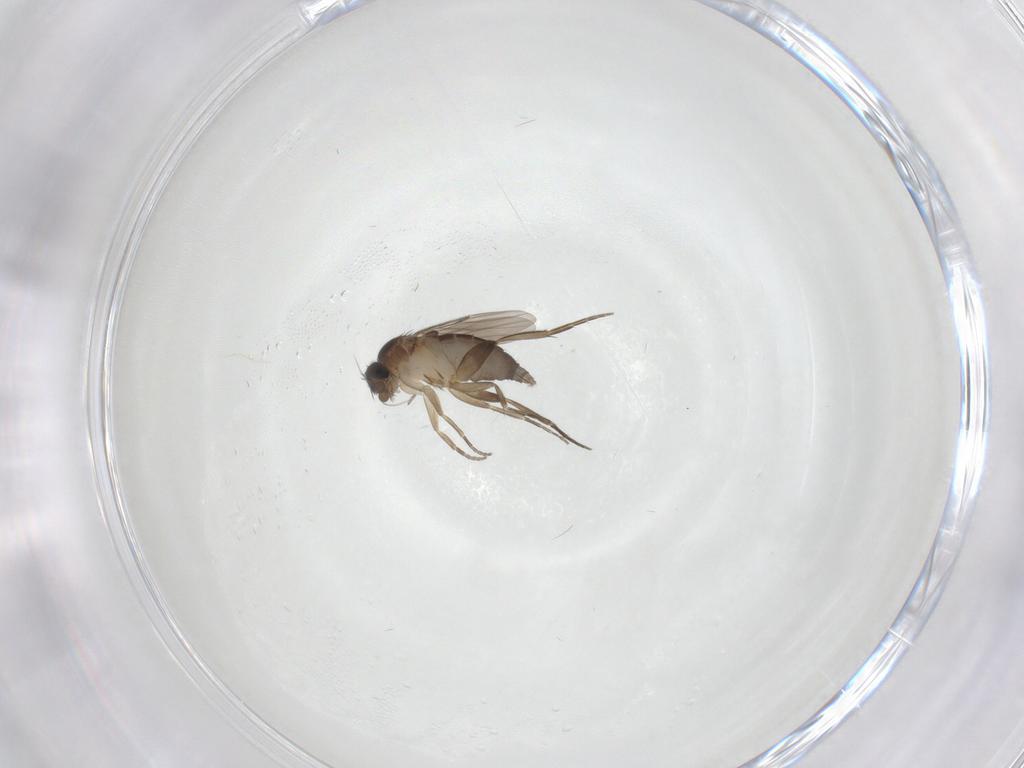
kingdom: Animalia
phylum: Arthropoda
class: Insecta
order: Diptera
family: Phoridae
